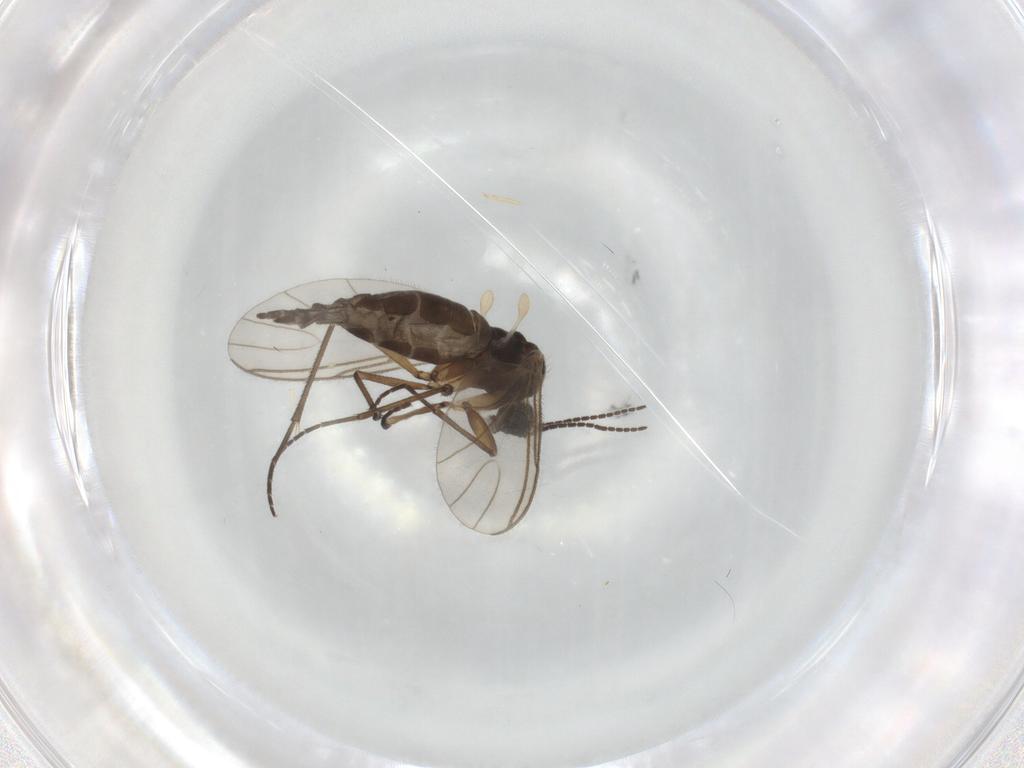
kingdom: Animalia
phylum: Arthropoda
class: Insecta
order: Diptera
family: Sciaridae
